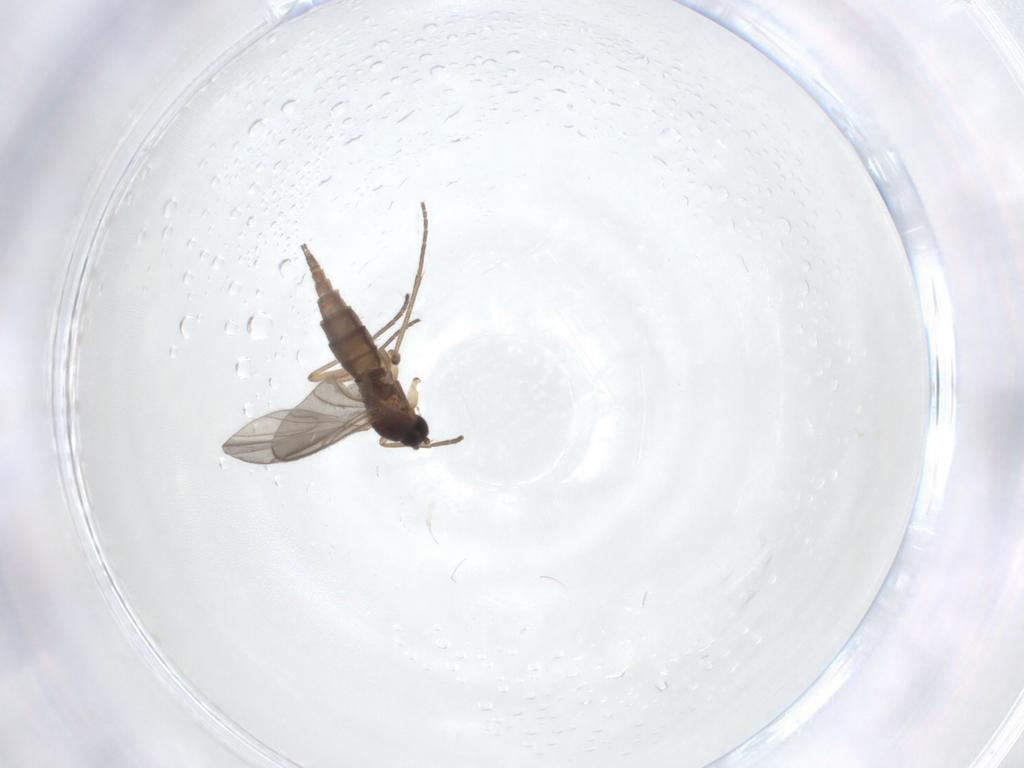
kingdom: Animalia
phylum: Arthropoda
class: Insecta
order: Diptera
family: Sciaridae
